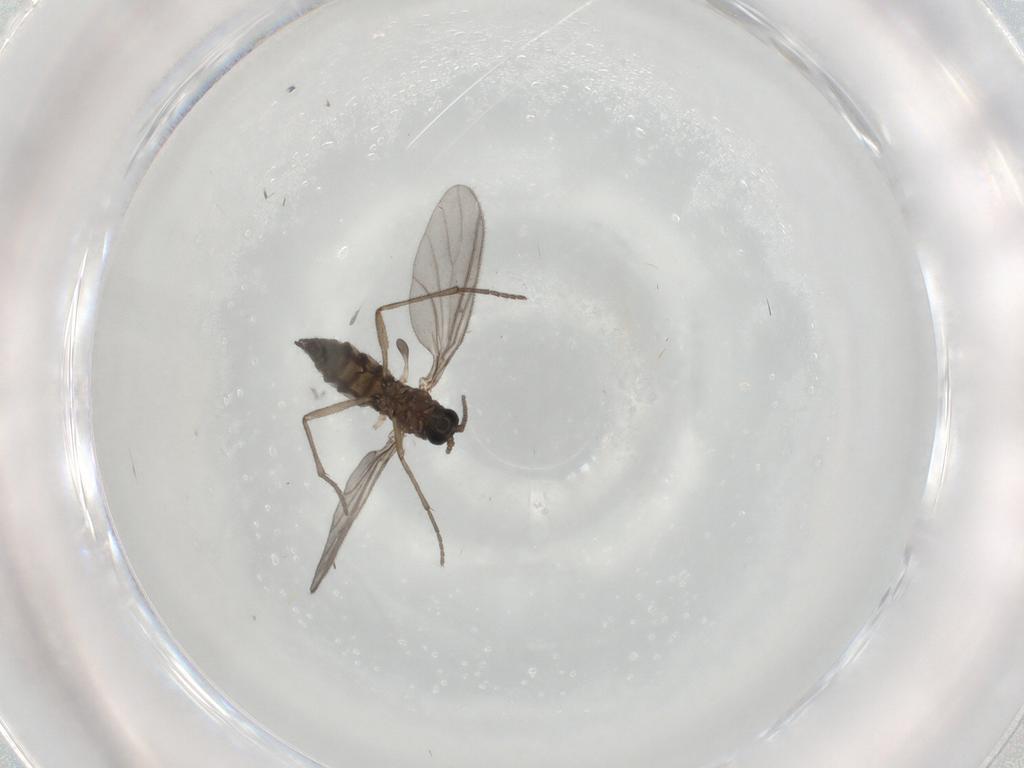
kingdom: Animalia
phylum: Arthropoda
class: Insecta
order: Diptera
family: Sciaridae
